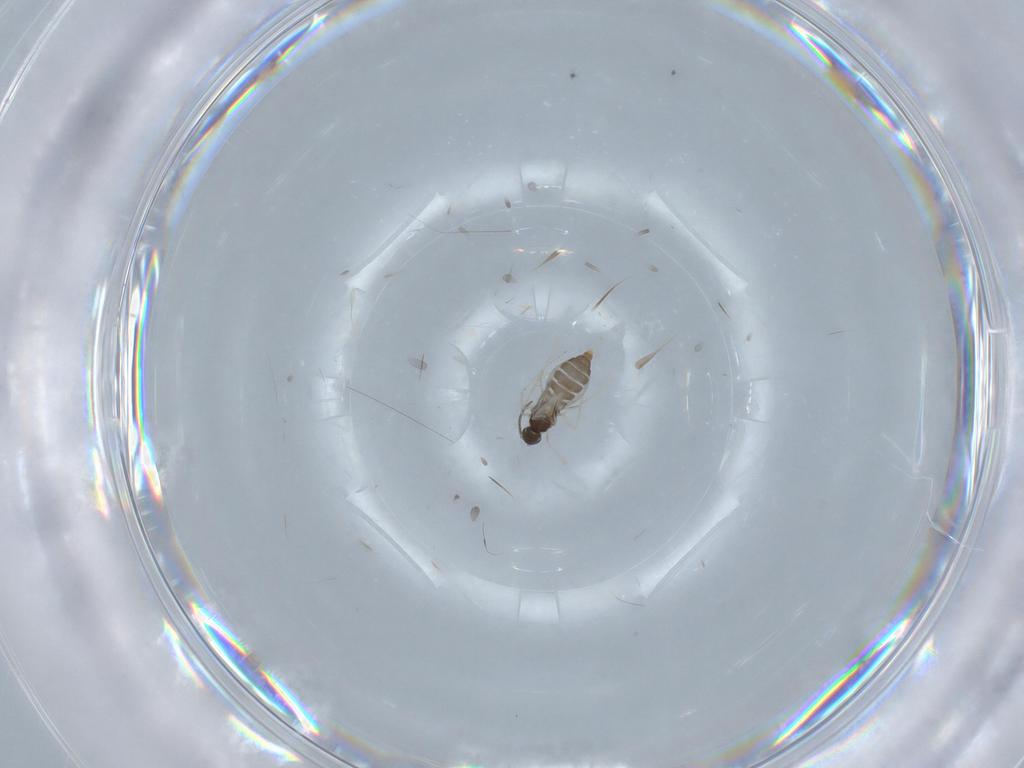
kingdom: Animalia
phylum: Arthropoda
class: Insecta
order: Diptera
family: Cecidomyiidae
